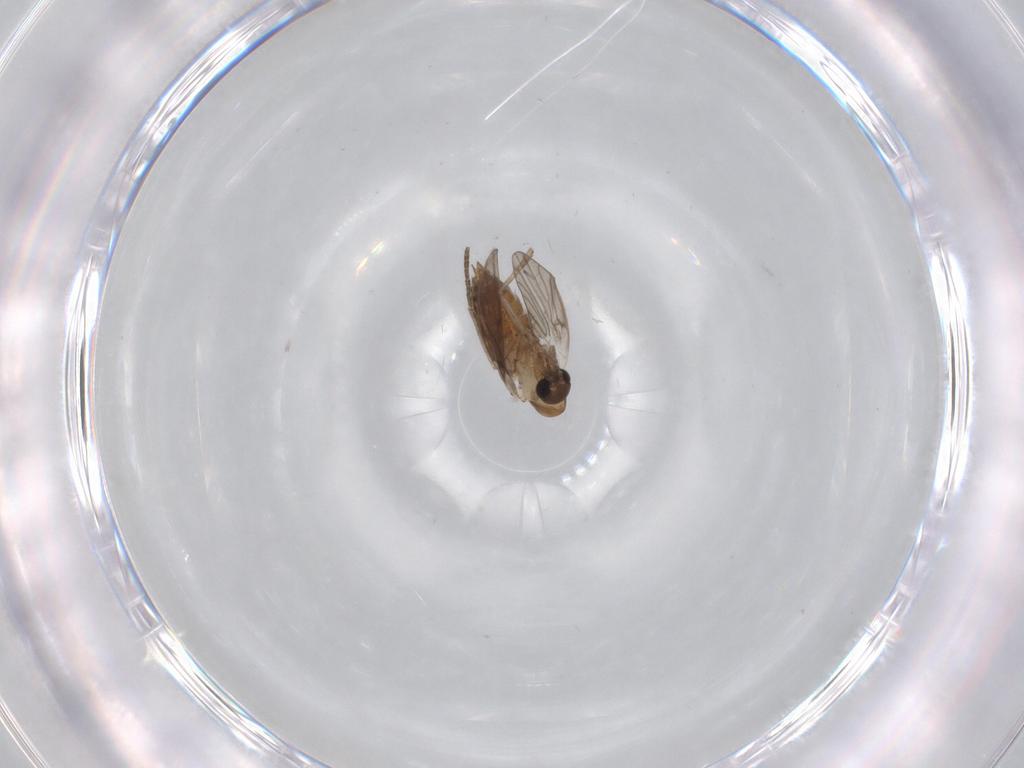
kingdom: Animalia
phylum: Arthropoda
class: Insecta
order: Diptera
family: Psychodidae
